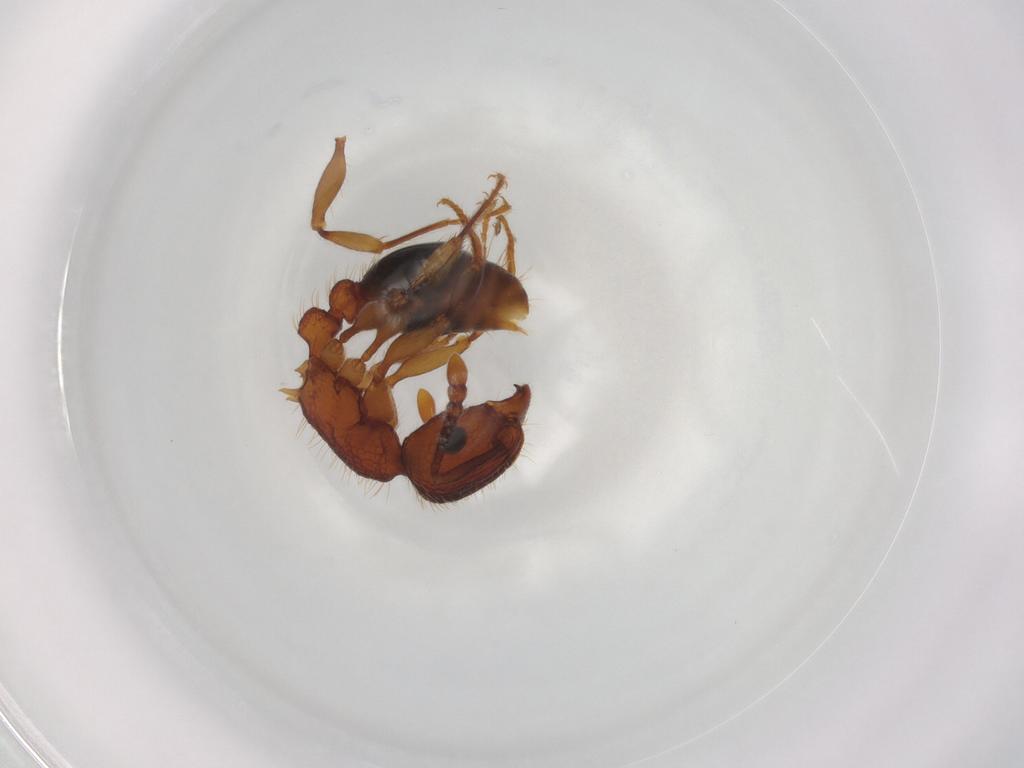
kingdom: Animalia
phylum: Arthropoda
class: Insecta
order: Hymenoptera
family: Formicidae
